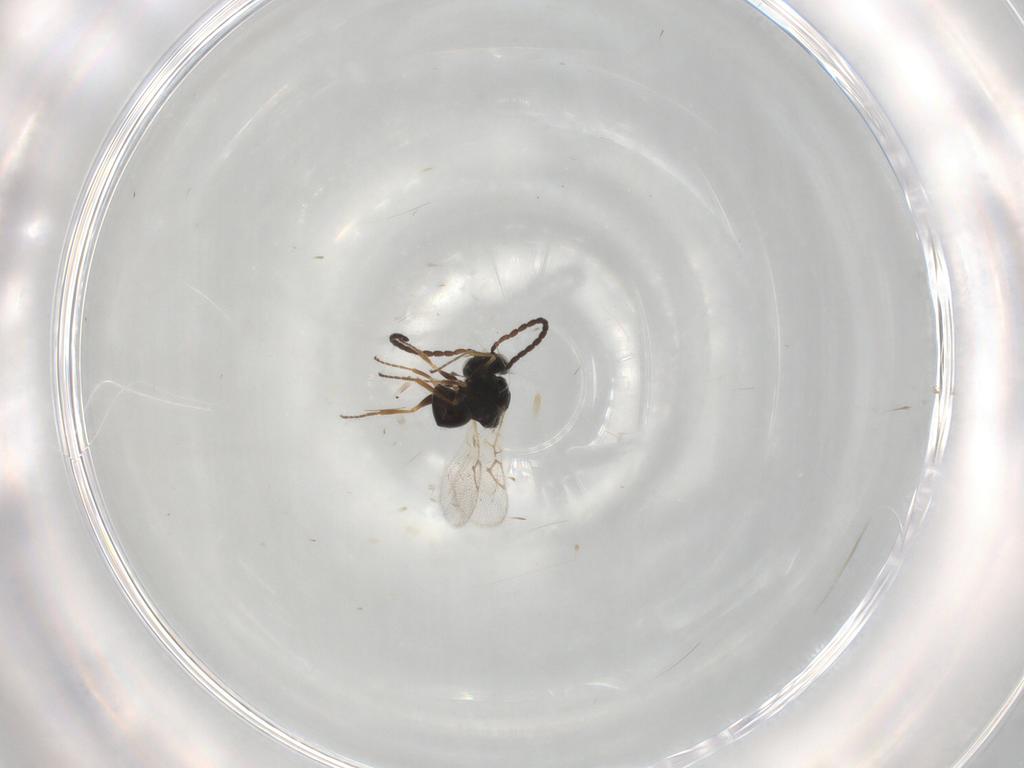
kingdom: Animalia
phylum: Arthropoda
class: Insecta
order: Hymenoptera
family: Figitidae
